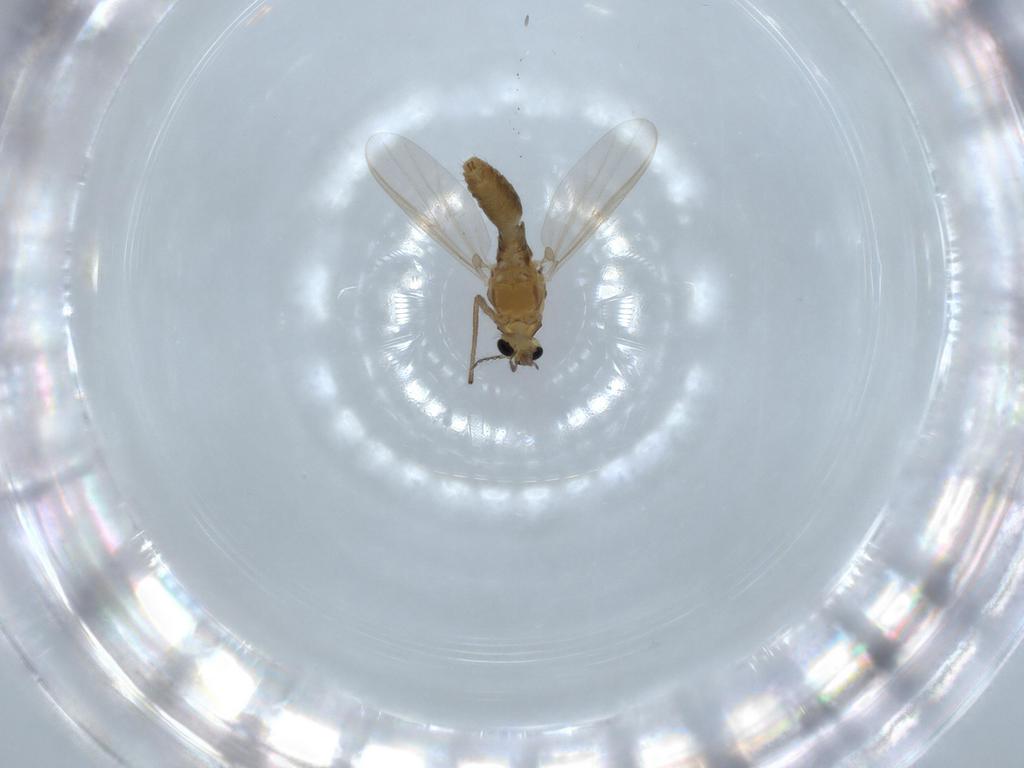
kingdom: Animalia
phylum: Arthropoda
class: Insecta
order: Diptera
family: Chironomidae
